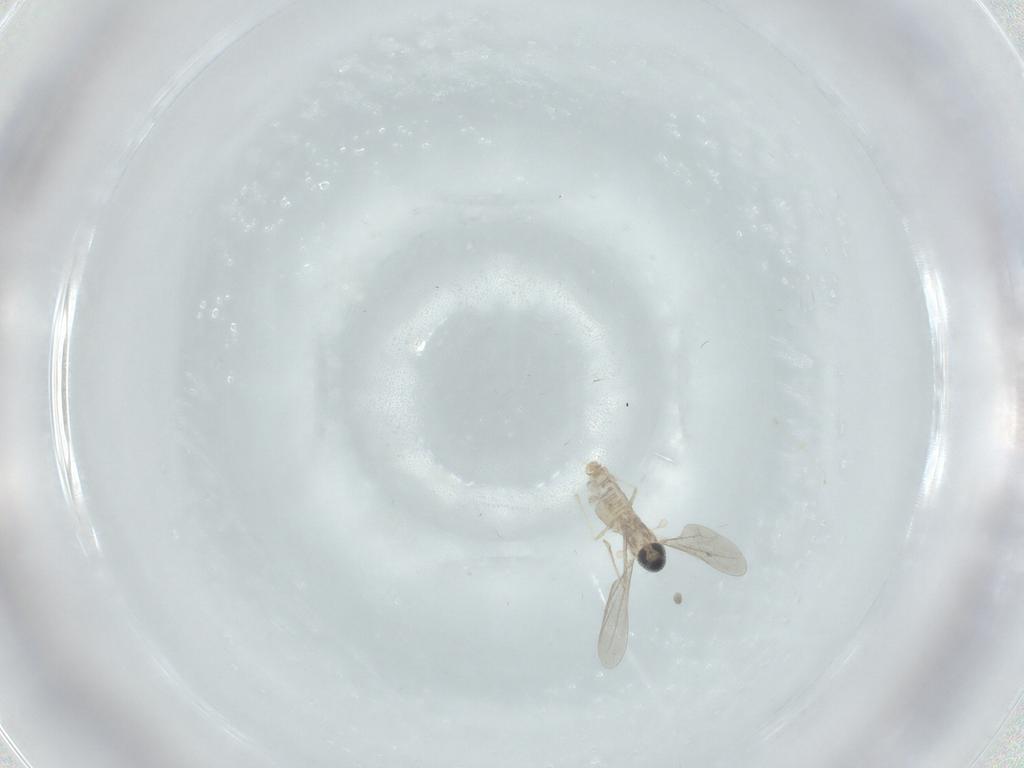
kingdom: Animalia
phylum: Arthropoda
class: Insecta
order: Diptera
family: Cecidomyiidae
